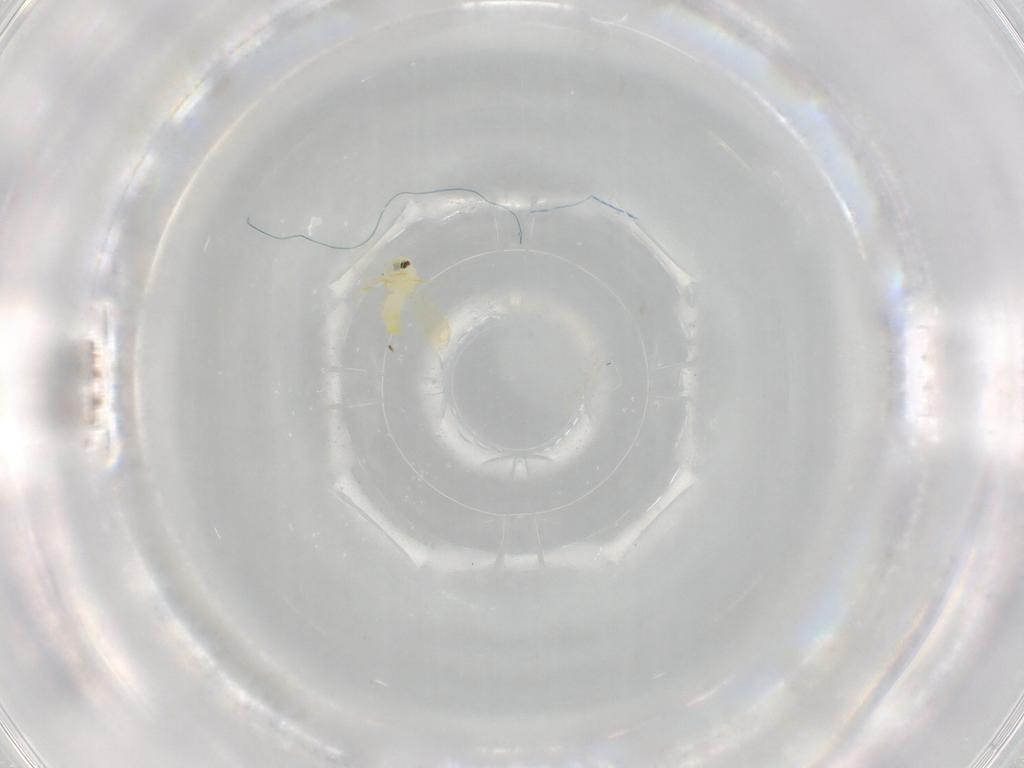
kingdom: Animalia
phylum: Arthropoda
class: Insecta
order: Hemiptera
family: Tropiduchidae
